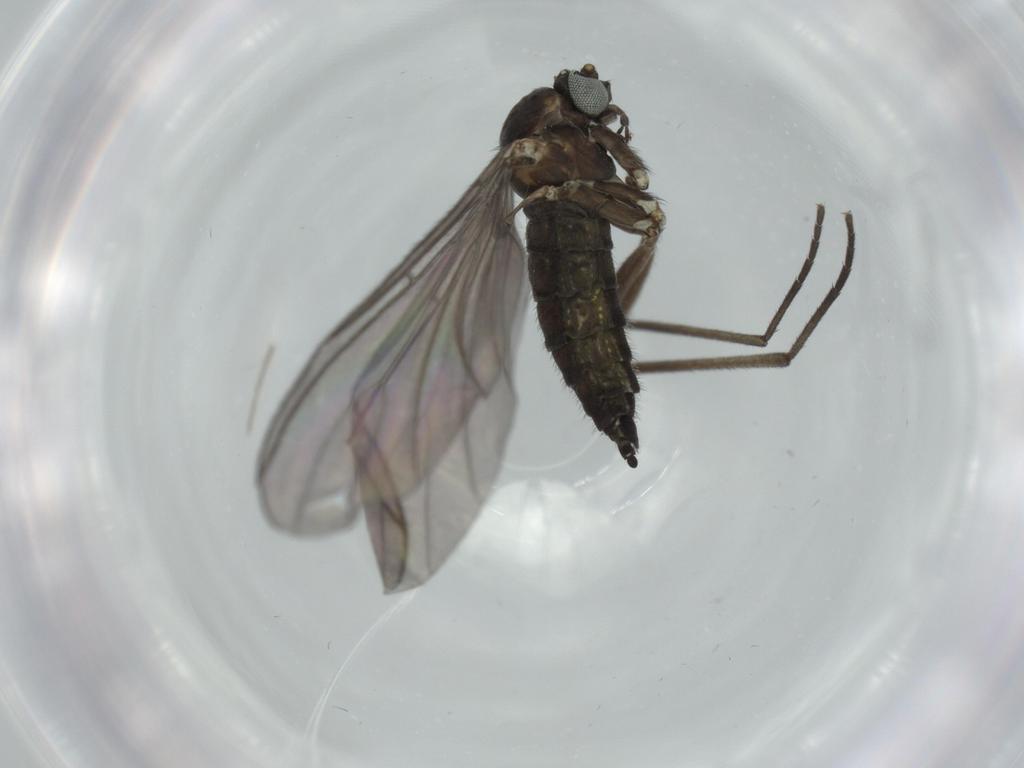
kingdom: Animalia
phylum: Arthropoda
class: Insecta
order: Diptera
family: Sciaridae
